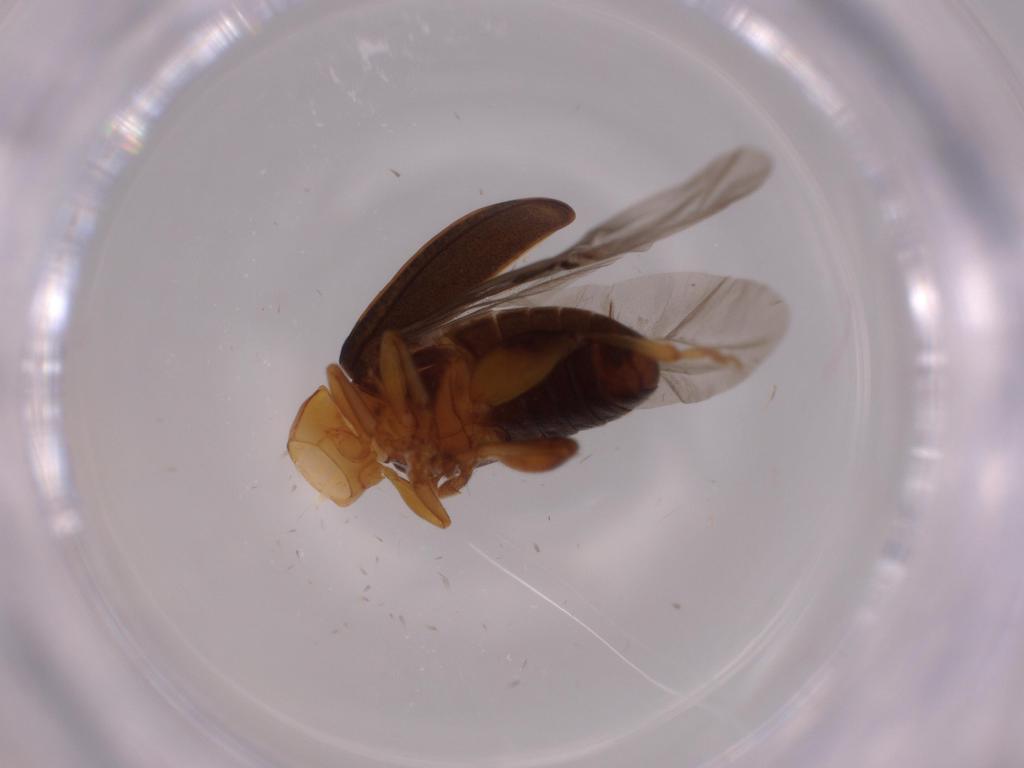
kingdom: Animalia
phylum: Arthropoda
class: Insecta
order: Coleoptera
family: Chrysomelidae
